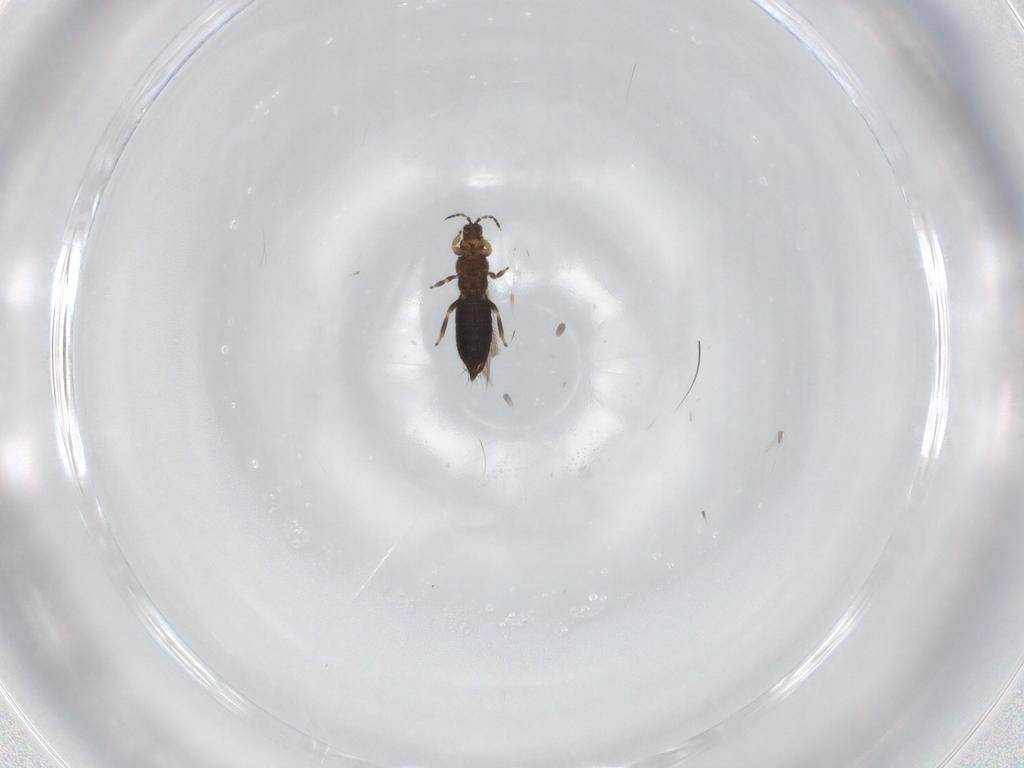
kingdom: Animalia
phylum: Arthropoda
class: Insecta
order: Thysanoptera
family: Thripidae
